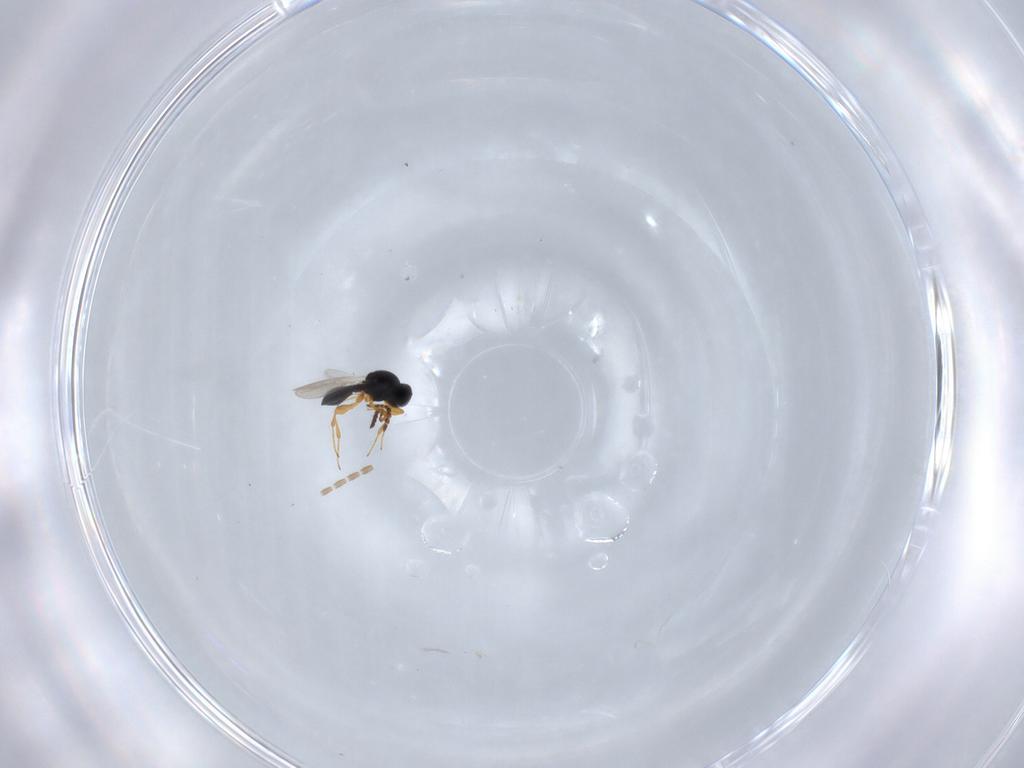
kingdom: Animalia
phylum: Arthropoda
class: Insecta
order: Hymenoptera
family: Platygastridae
